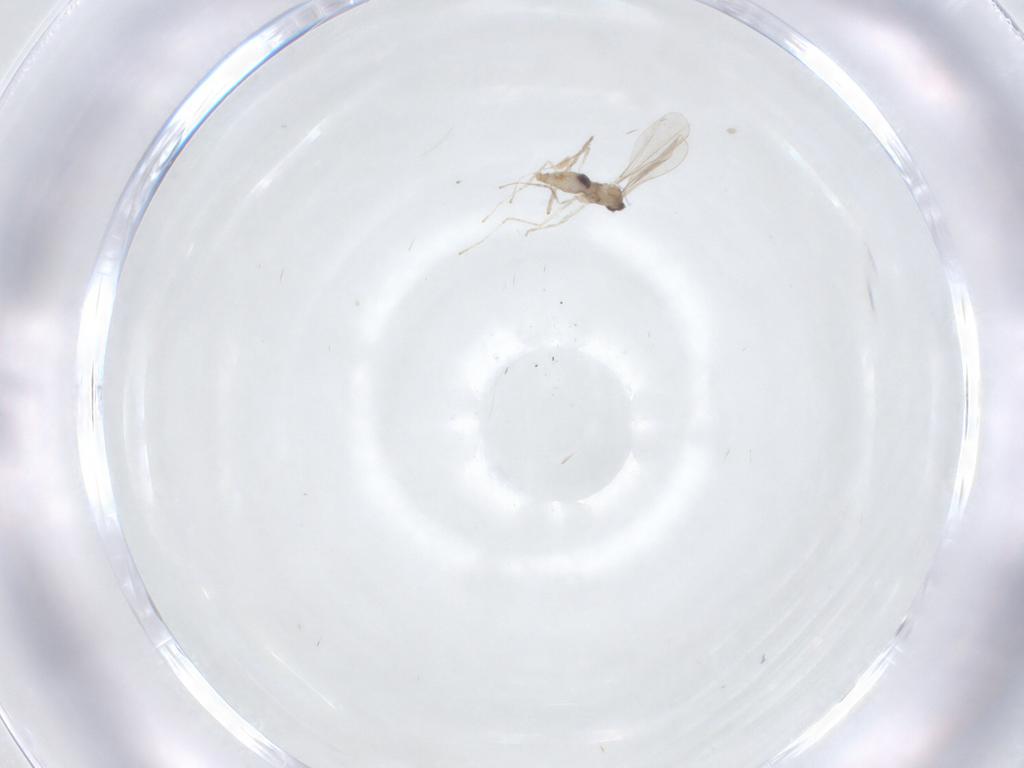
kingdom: Animalia
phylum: Arthropoda
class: Insecta
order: Diptera
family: Cecidomyiidae
